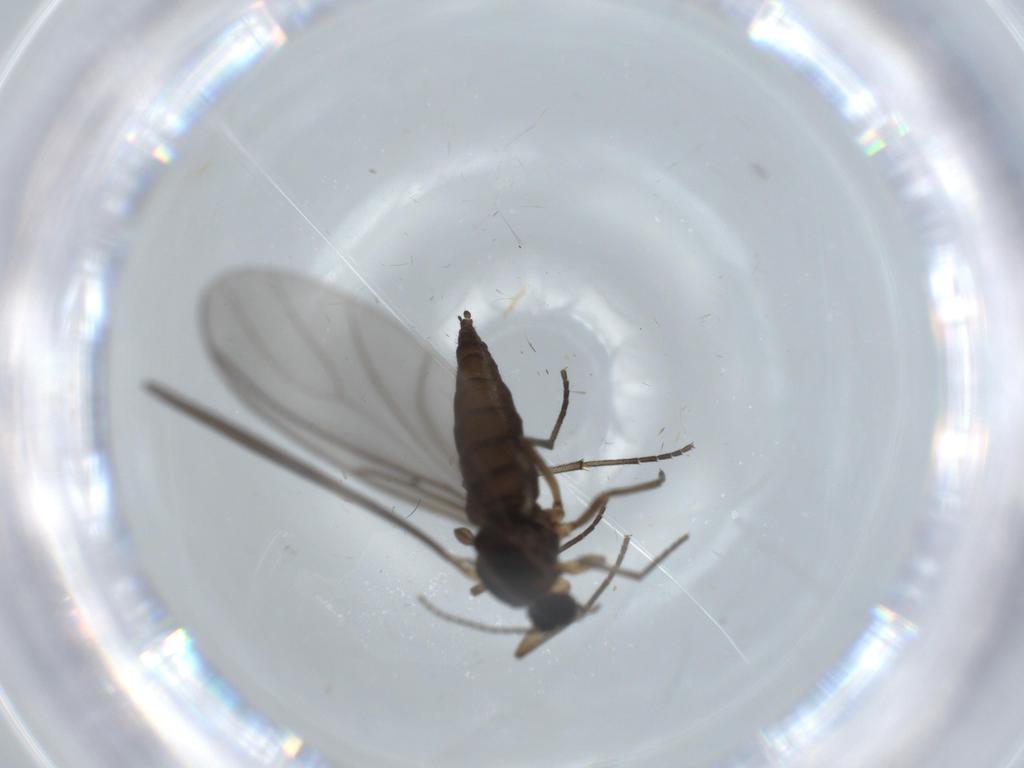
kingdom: Animalia
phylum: Arthropoda
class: Insecta
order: Diptera
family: Sciaridae
